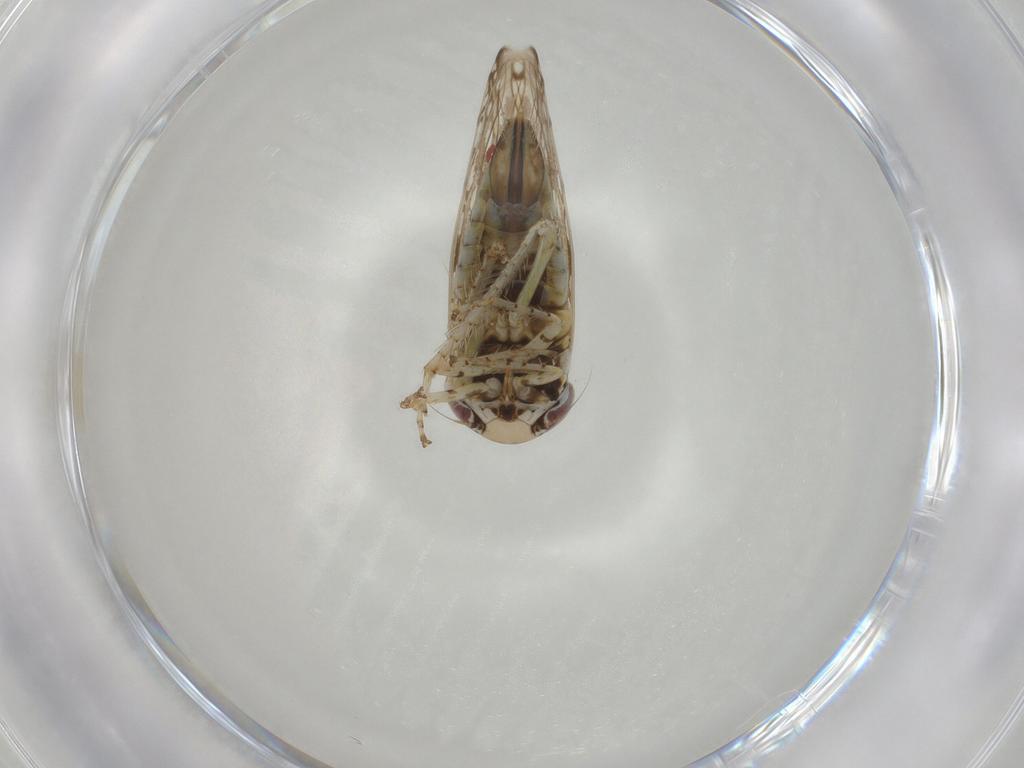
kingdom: Animalia
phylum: Arthropoda
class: Insecta
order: Hemiptera
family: Cicadellidae
